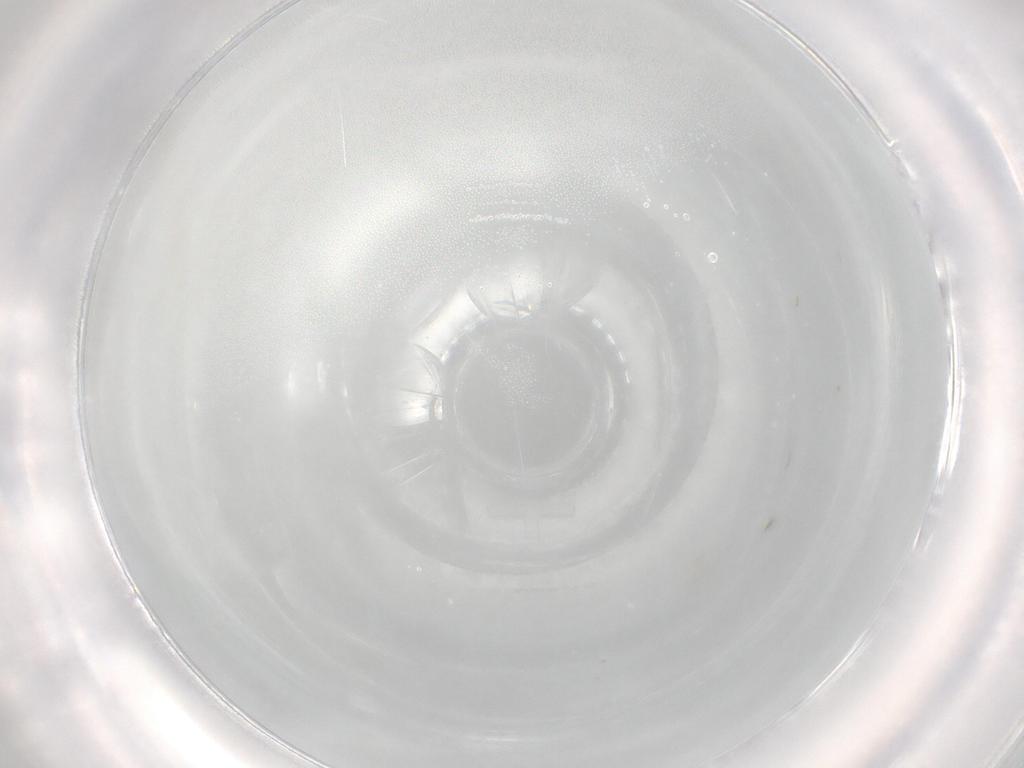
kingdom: Animalia
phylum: Arthropoda
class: Insecta
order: Diptera
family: Cecidomyiidae
